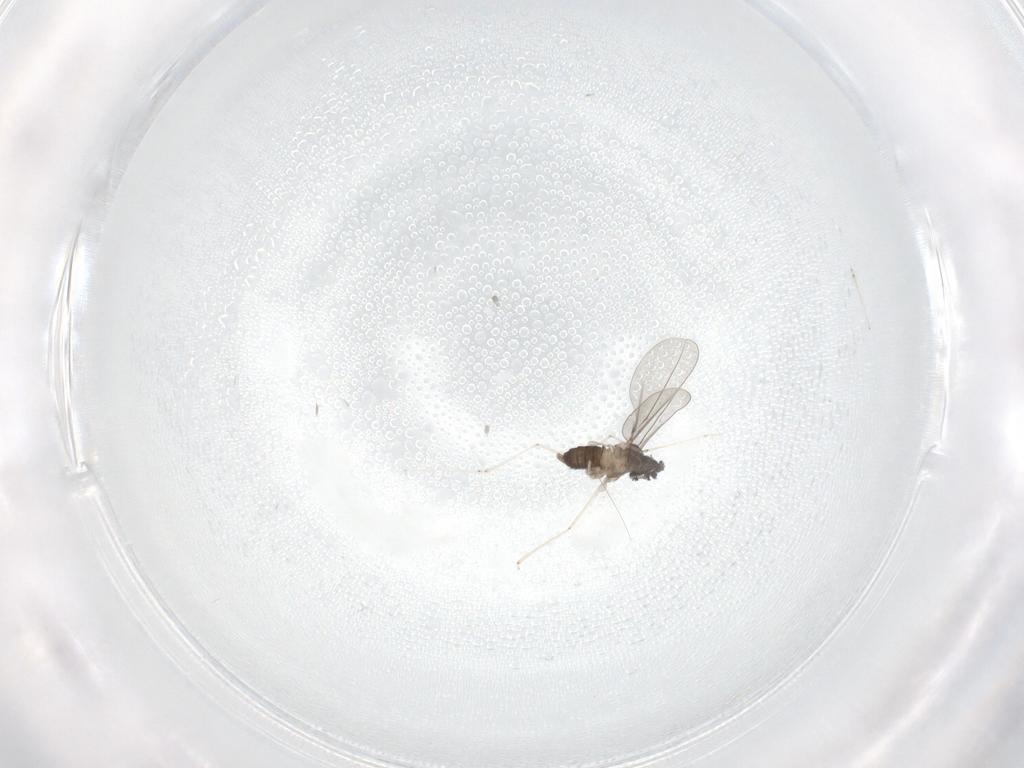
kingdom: Animalia
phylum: Arthropoda
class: Insecta
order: Diptera
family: Cecidomyiidae
